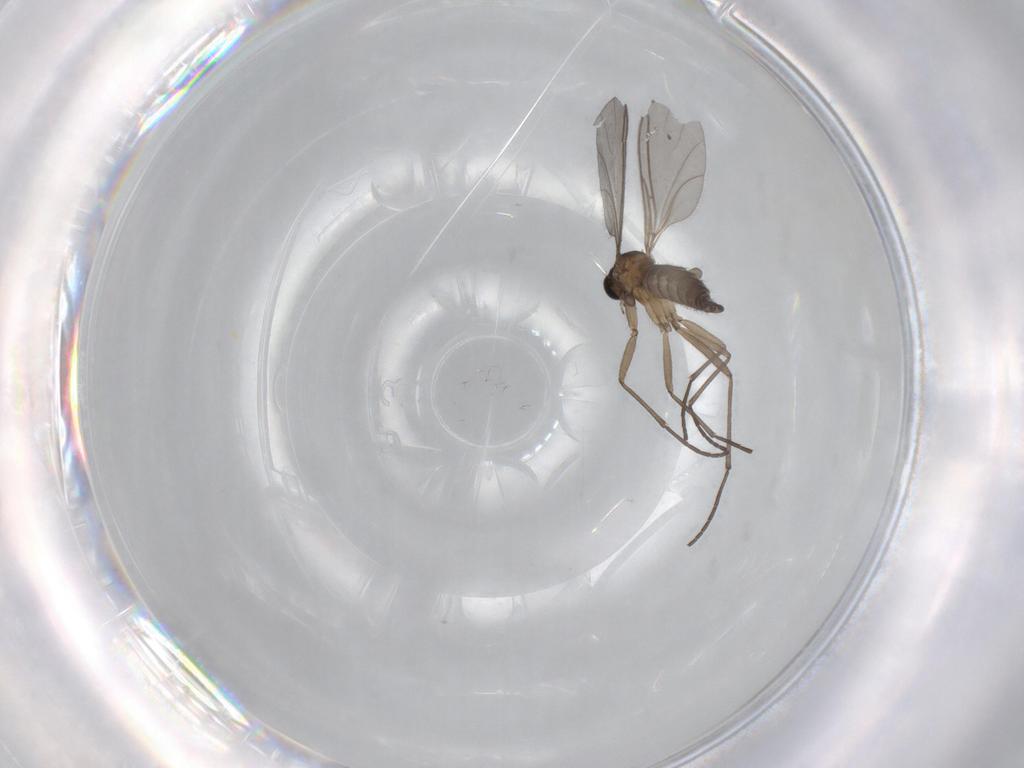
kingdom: Animalia
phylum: Arthropoda
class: Insecta
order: Diptera
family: Sciaridae
